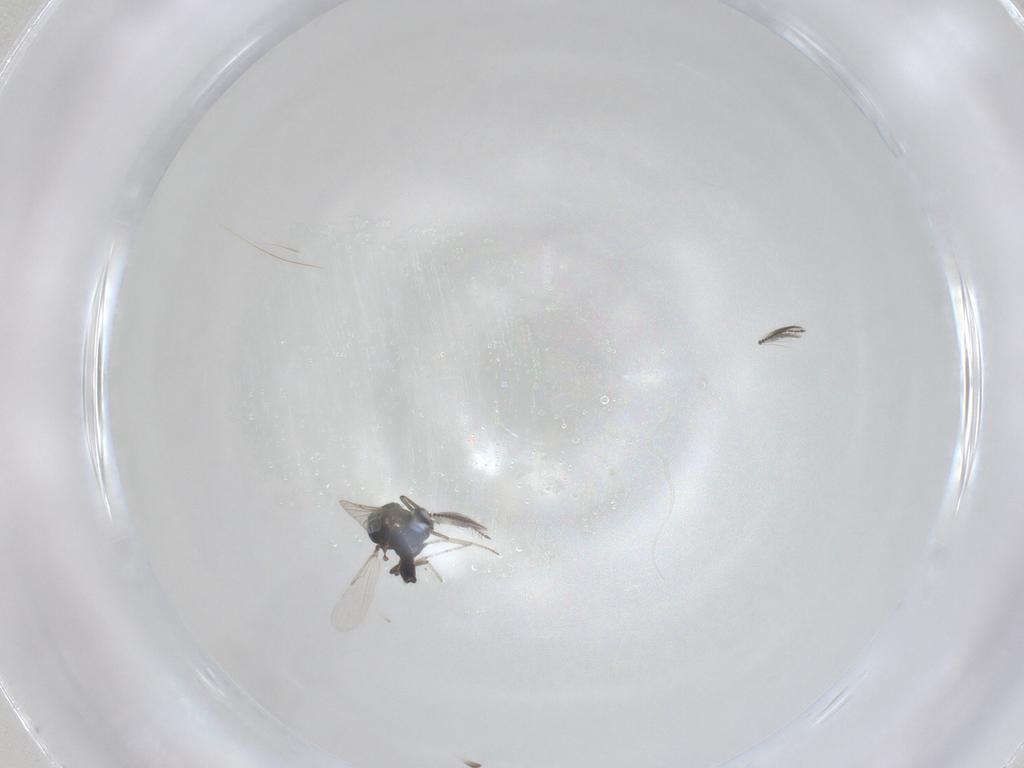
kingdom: Animalia
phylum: Arthropoda
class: Insecta
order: Diptera
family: Ceratopogonidae
